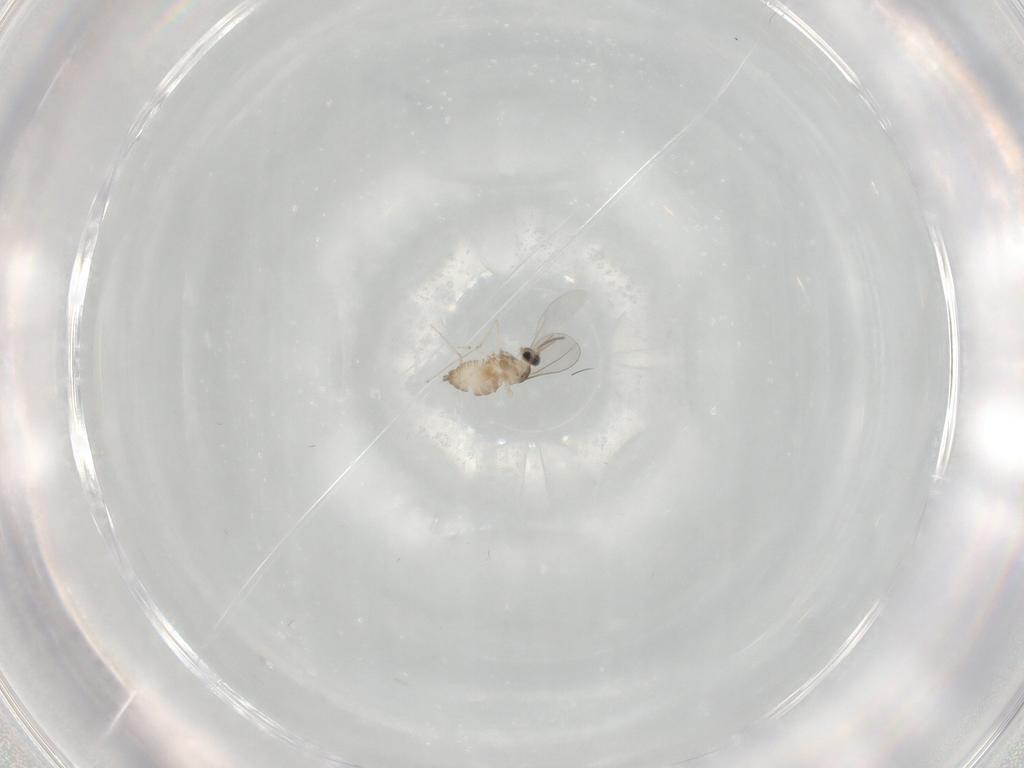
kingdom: Animalia
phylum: Arthropoda
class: Insecta
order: Diptera
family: Cecidomyiidae
